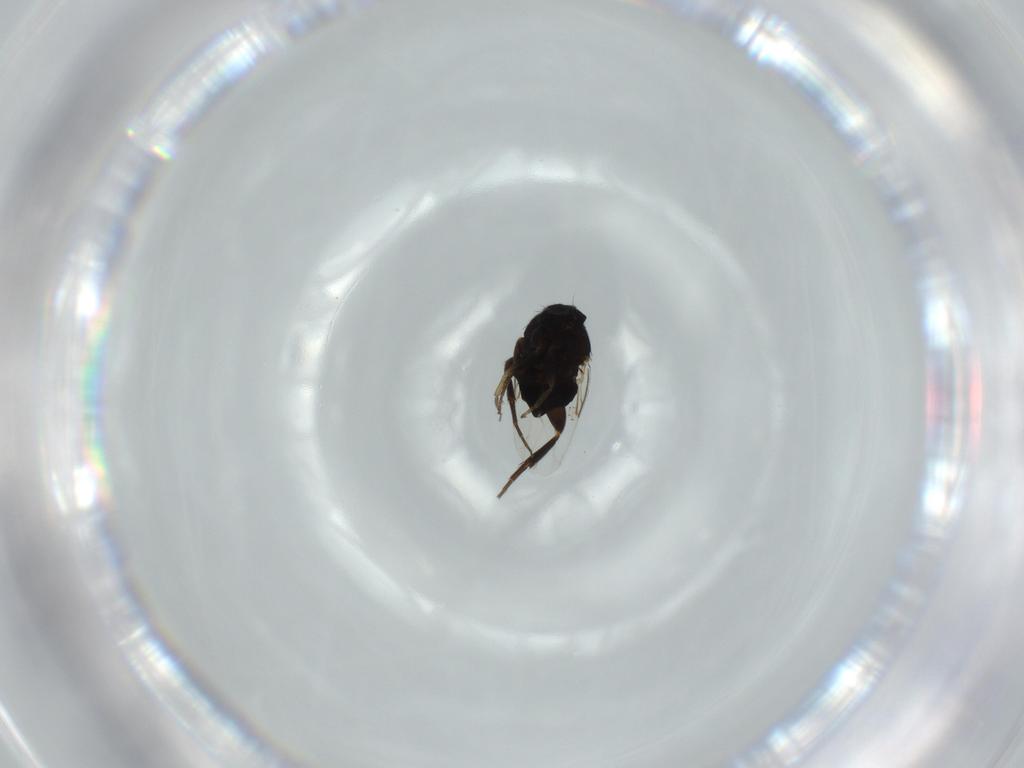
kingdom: Animalia
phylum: Arthropoda
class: Insecta
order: Diptera
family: Phoridae
